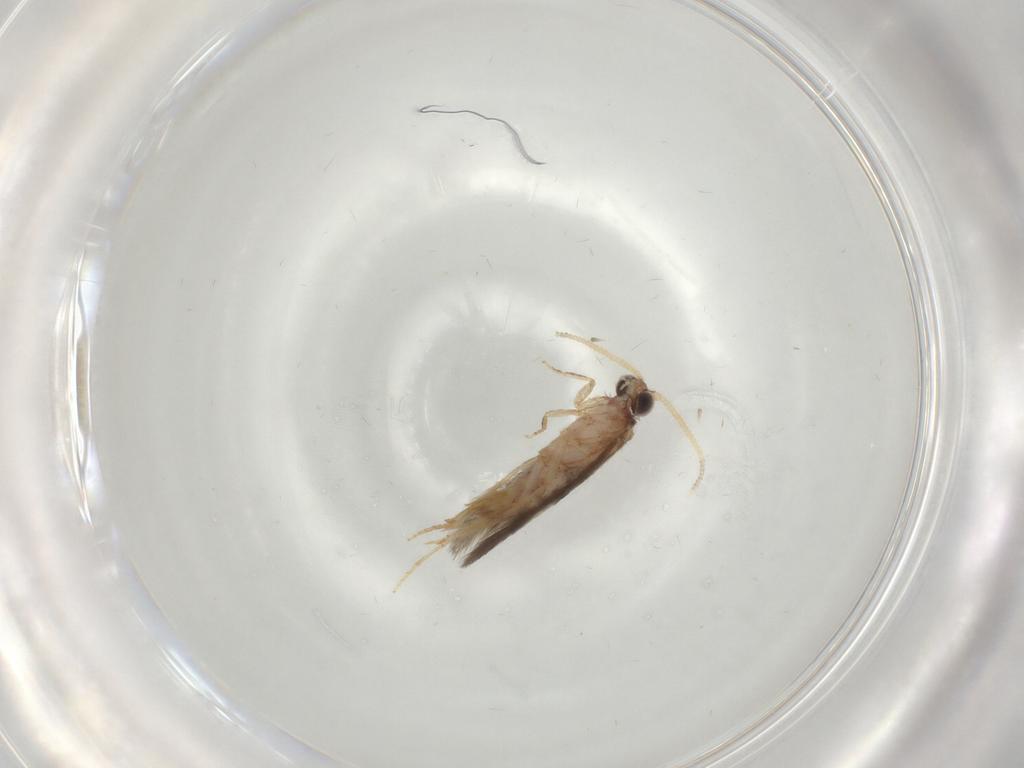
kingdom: Animalia
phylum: Arthropoda
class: Insecta
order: Trichoptera
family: Hydroptilidae
